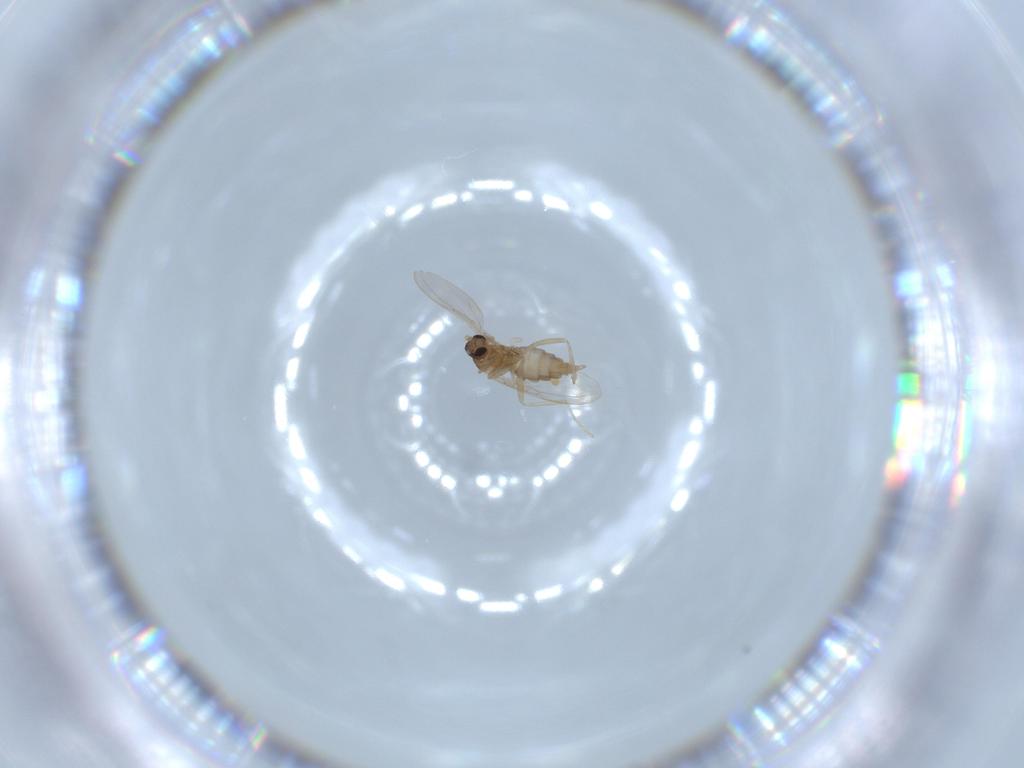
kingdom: Animalia
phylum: Arthropoda
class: Insecta
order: Diptera
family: Cecidomyiidae
